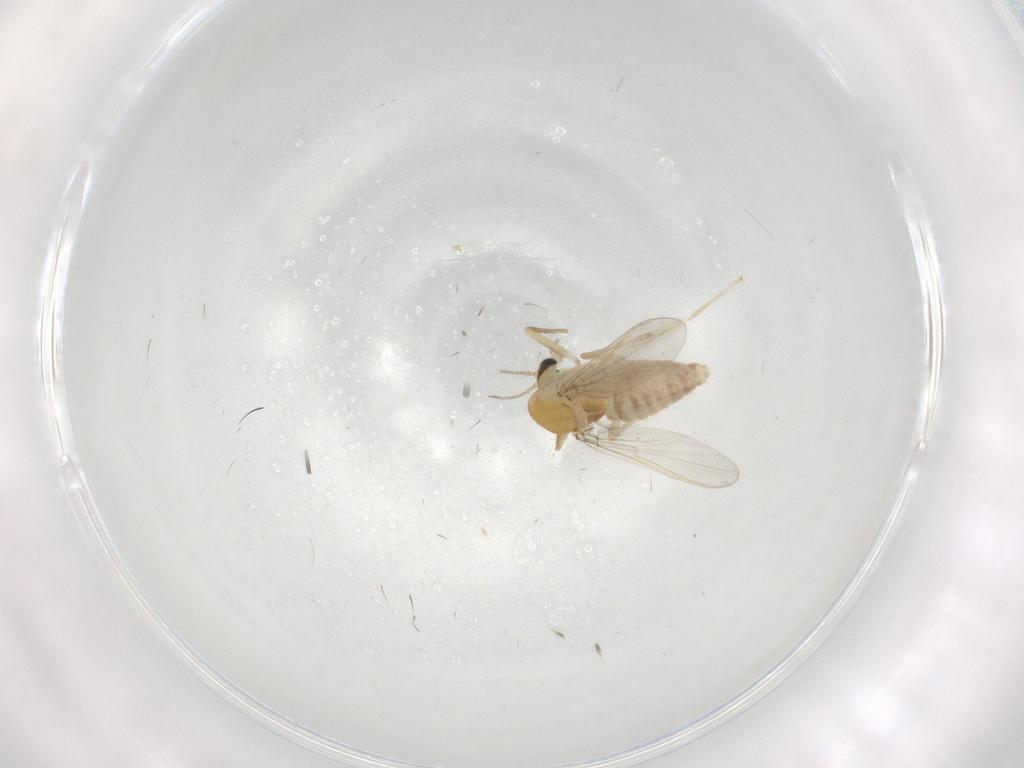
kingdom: Animalia
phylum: Arthropoda
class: Insecta
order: Diptera
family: Chironomidae
